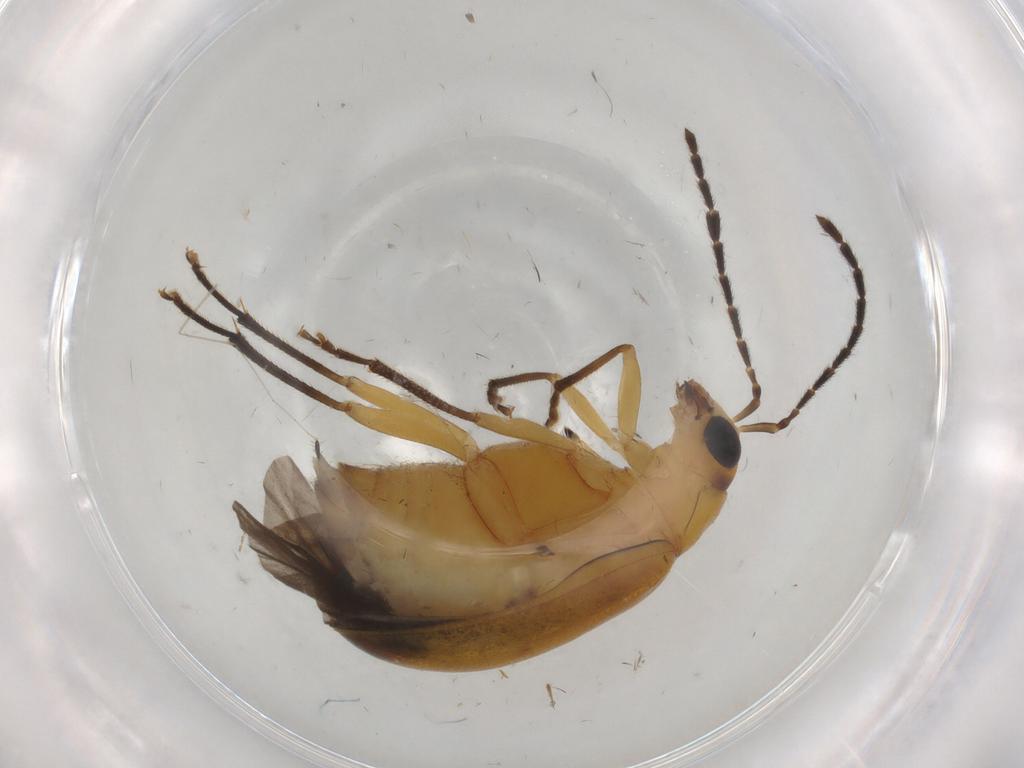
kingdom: Animalia
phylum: Arthropoda
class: Insecta
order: Coleoptera
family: Chrysomelidae
